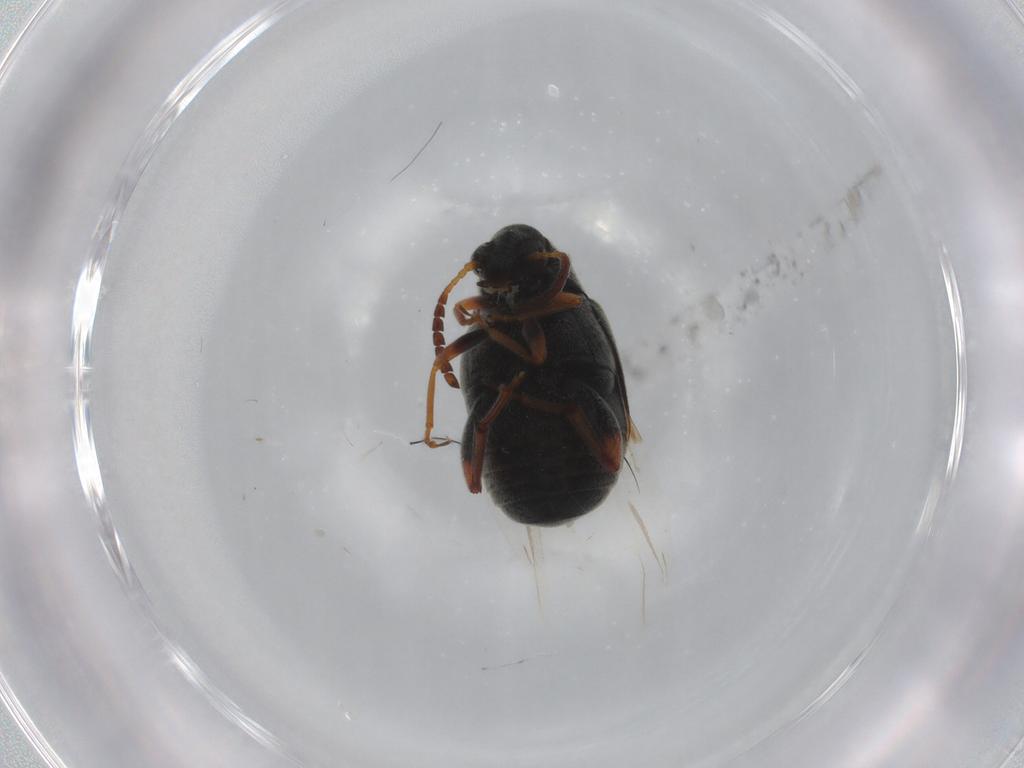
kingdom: Animalia
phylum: Arthropoda
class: Insecta
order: Coleoptera
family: Chrysomelidae
